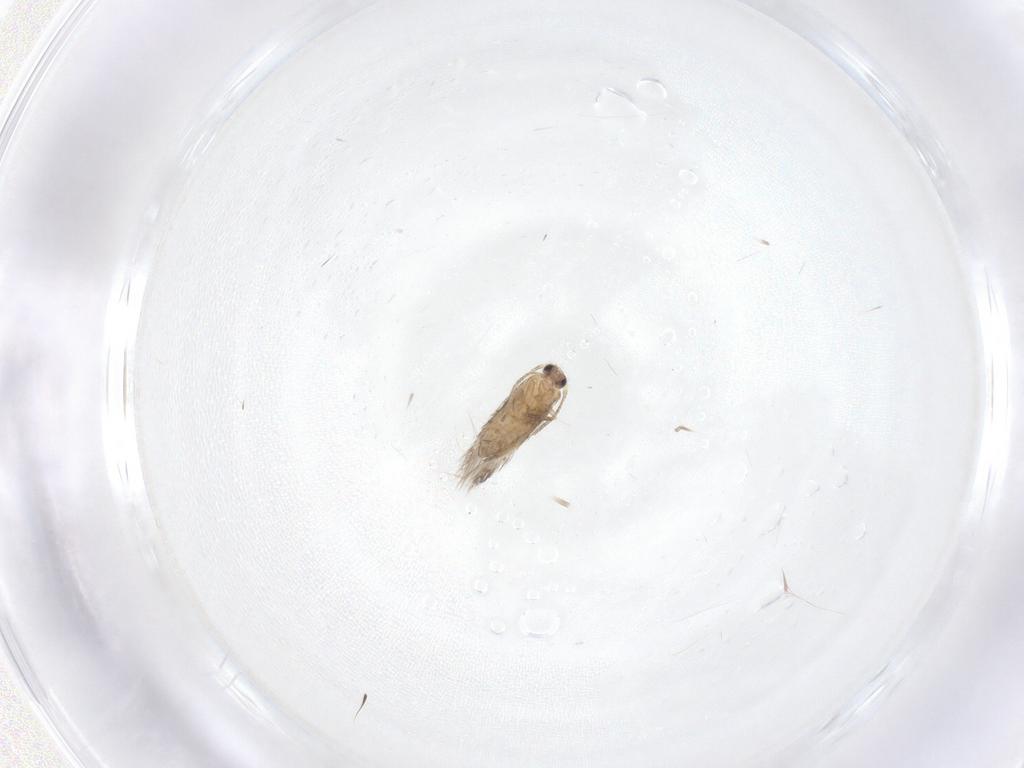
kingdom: Animalia
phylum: Arthropoda
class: Insecta
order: Lepidoptera
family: Nepticulidae
